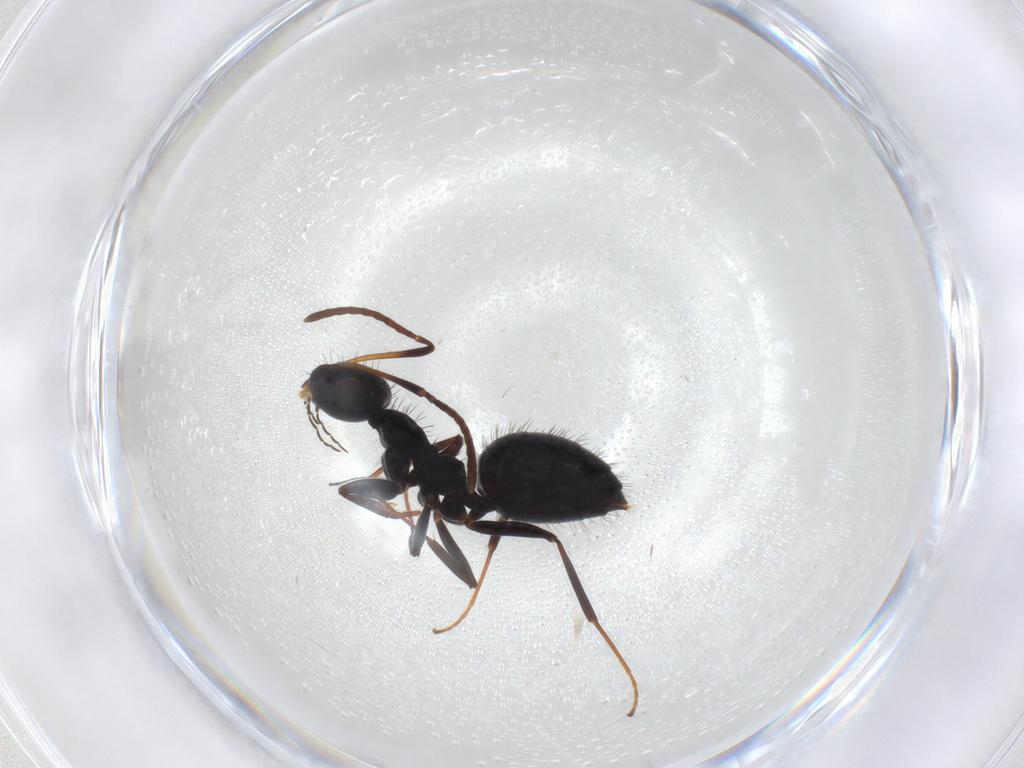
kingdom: Animalia
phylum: Arthropoda
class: Insecta
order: Hymenoptera
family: Formicidae
